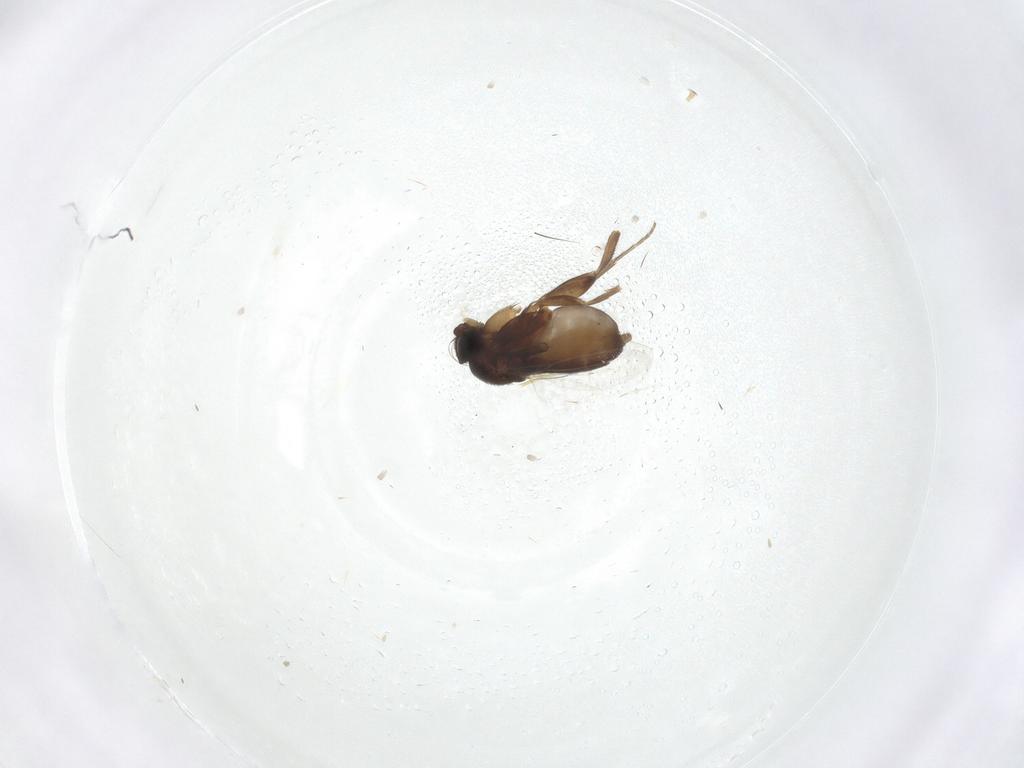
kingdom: Animalia
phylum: Arthropoda
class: Insecta
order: Diptera
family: Phoridae
